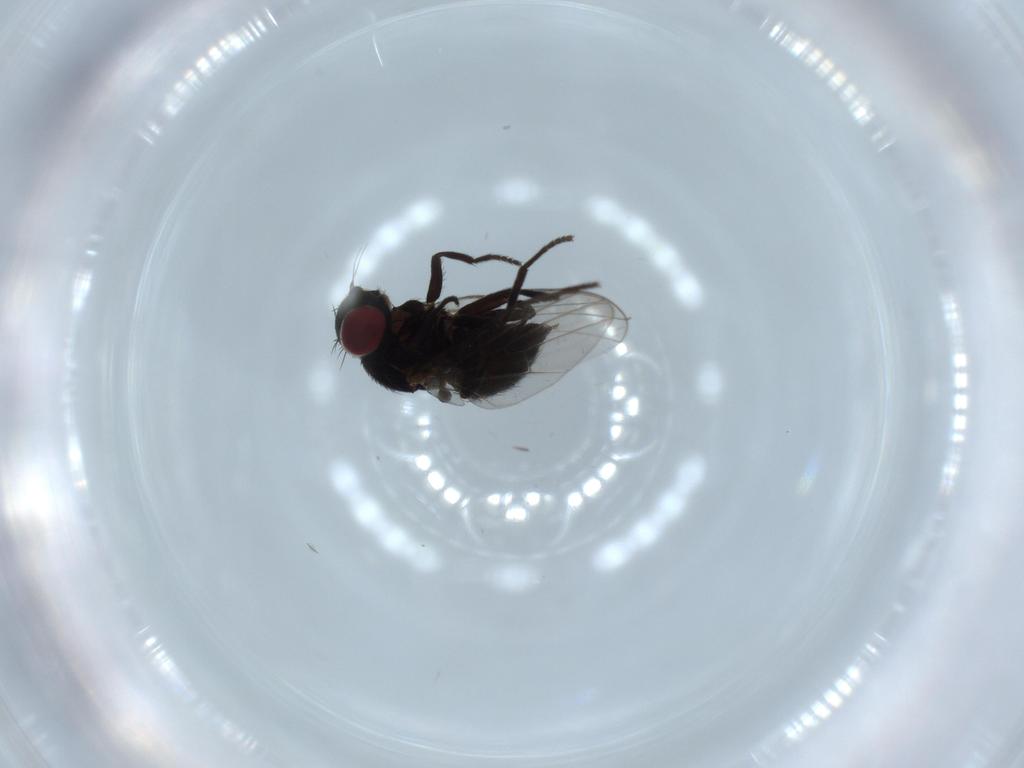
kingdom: Animalia
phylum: Arthropoda
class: Insecta
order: Diptera
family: Agromyzidae
